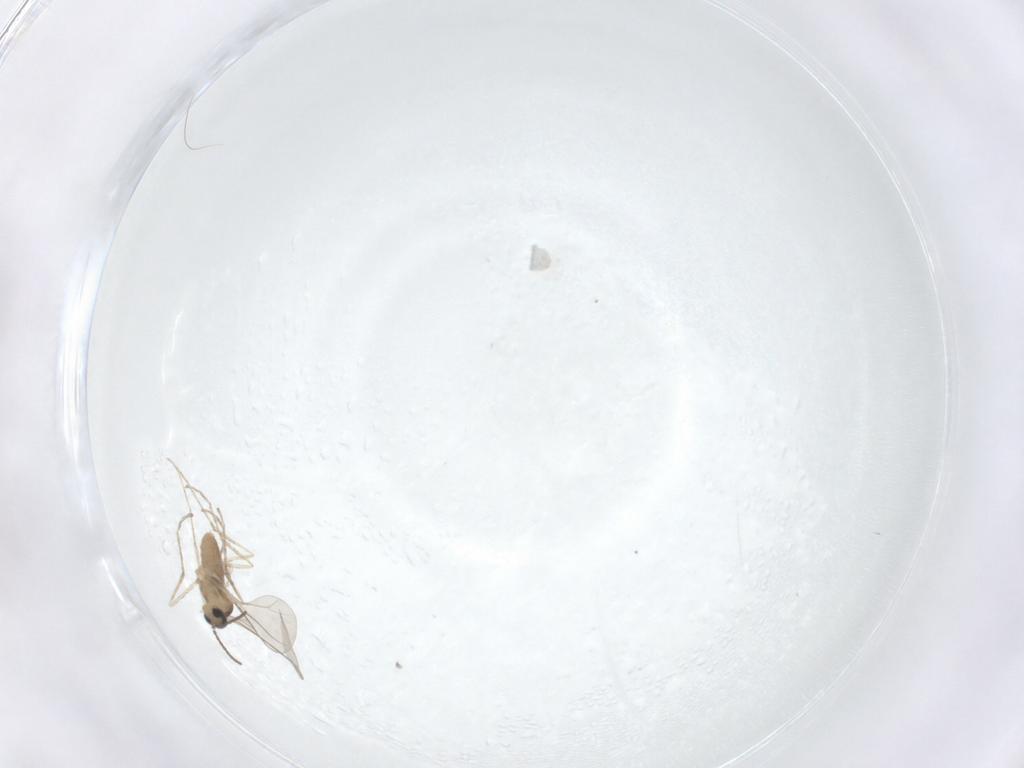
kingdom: Animalia
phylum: Arthropoda
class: Insecta
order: Diptera
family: Cecidomyiidae
